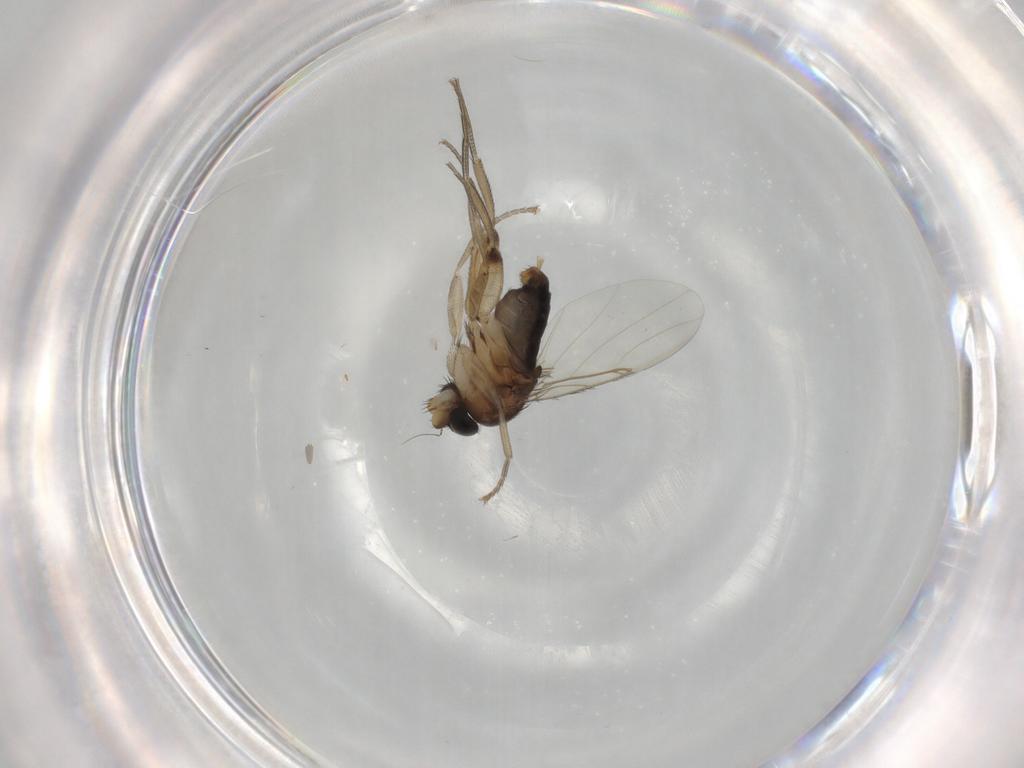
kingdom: Animalia
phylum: Arthropoda
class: Insecta
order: Diptera
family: Phoridae
